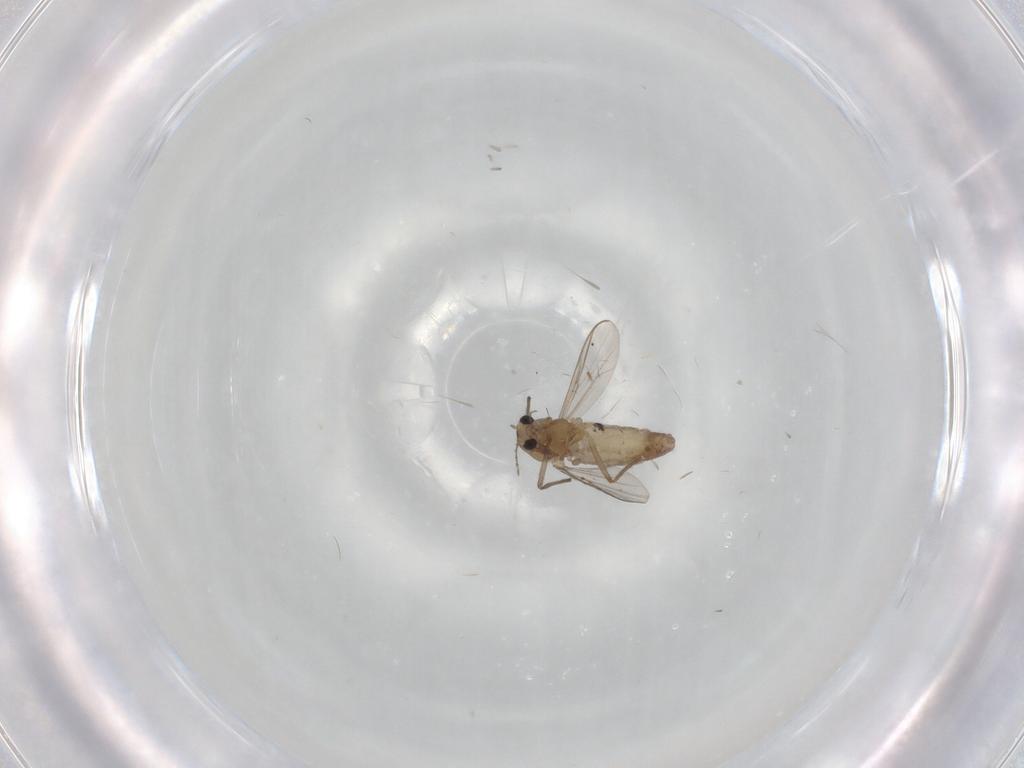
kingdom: Animalia
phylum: Arthropoda
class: Insecta
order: Diptera
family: Chironomidae
